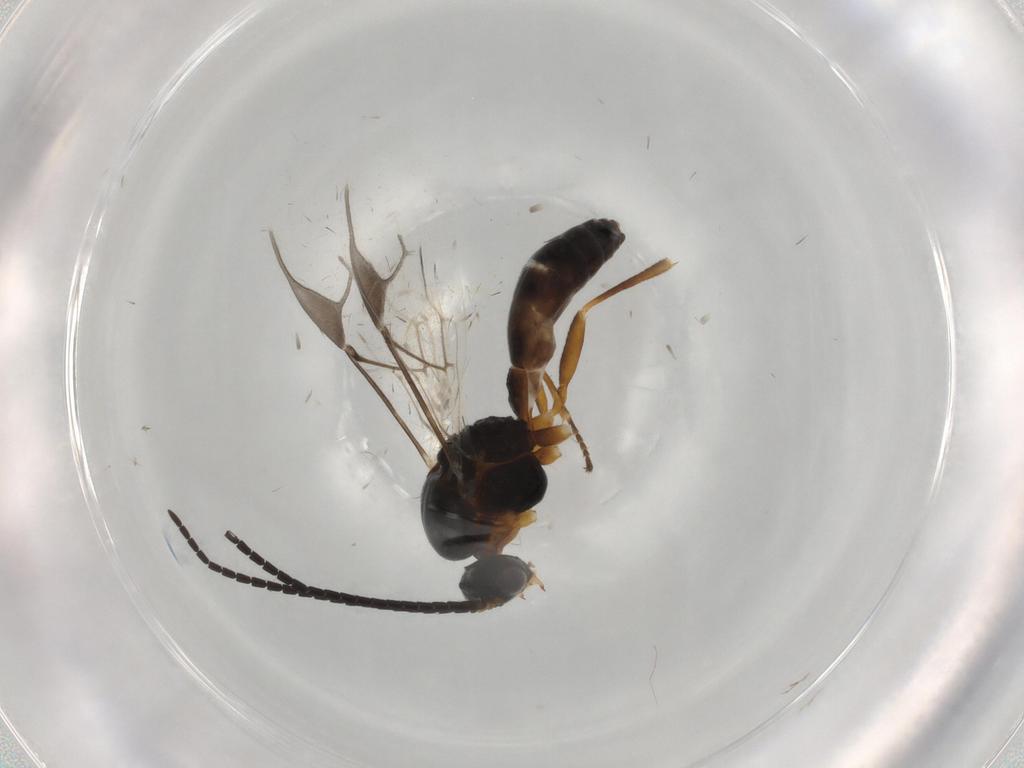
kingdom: Animalia
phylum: Arthropoda
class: Insecta
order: Hymenoptera
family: Braconidae
